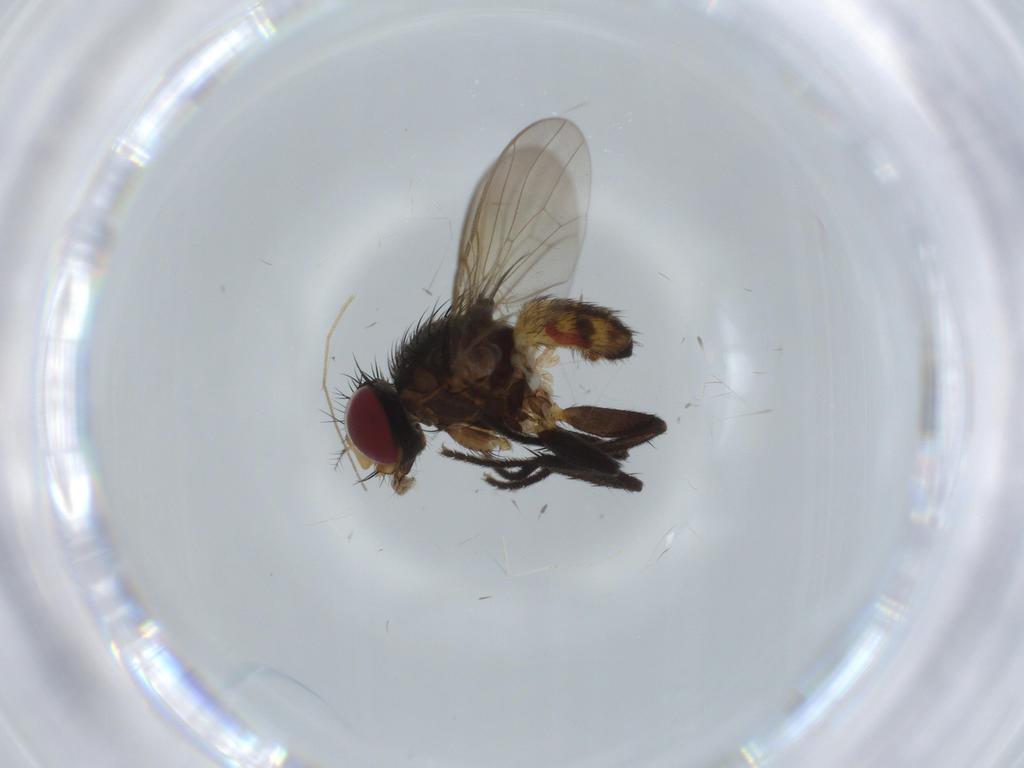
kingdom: Animalia
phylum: Arthropoda
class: Insecta
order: Diptera
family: Anthomyiidae
